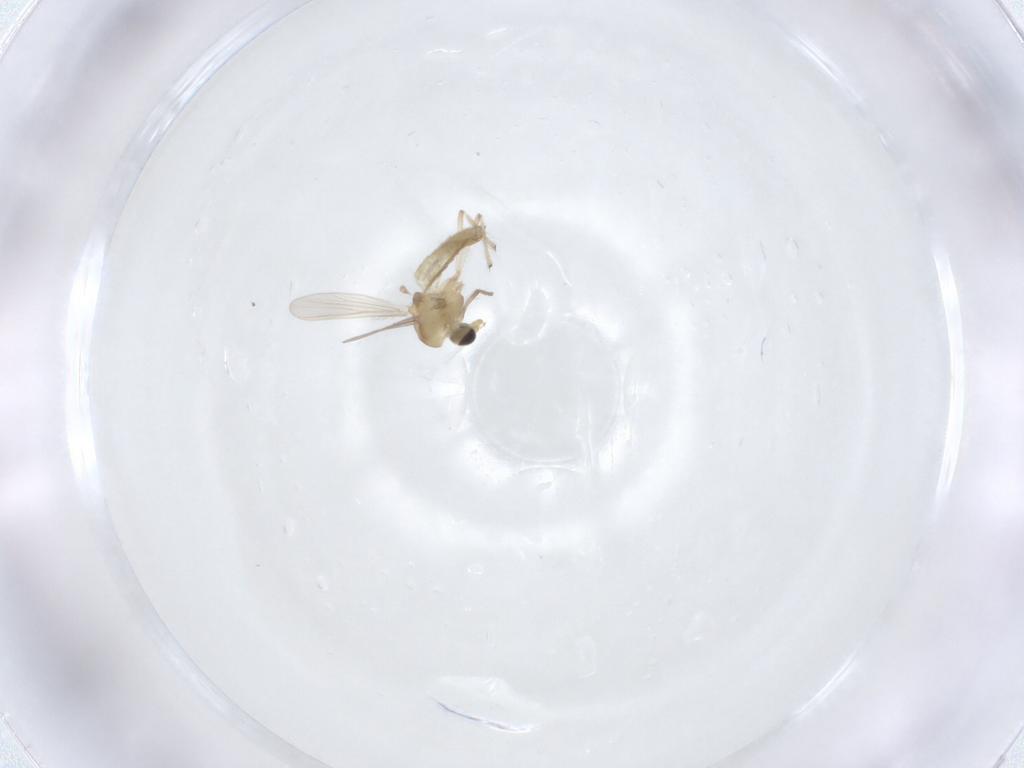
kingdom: Animalia
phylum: Arthropoda
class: Insecta
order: Diptera
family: Chironomidae
